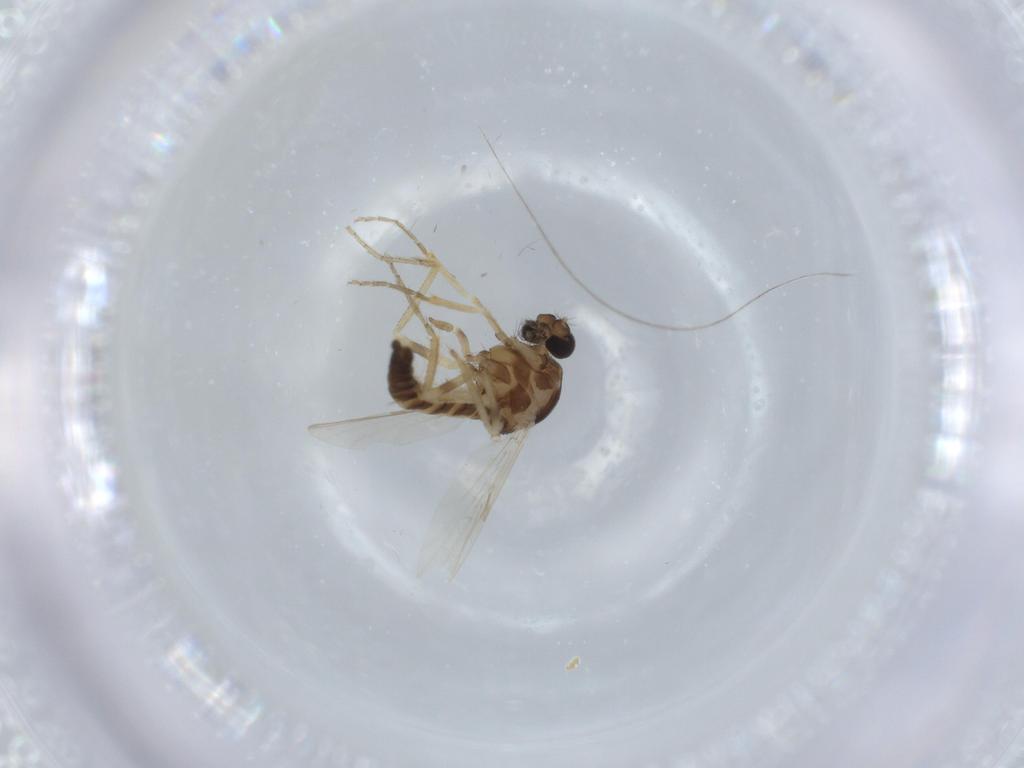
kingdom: Animalia
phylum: Arthropoda
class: Insecta
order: Diptera
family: Ceratopogonidae
